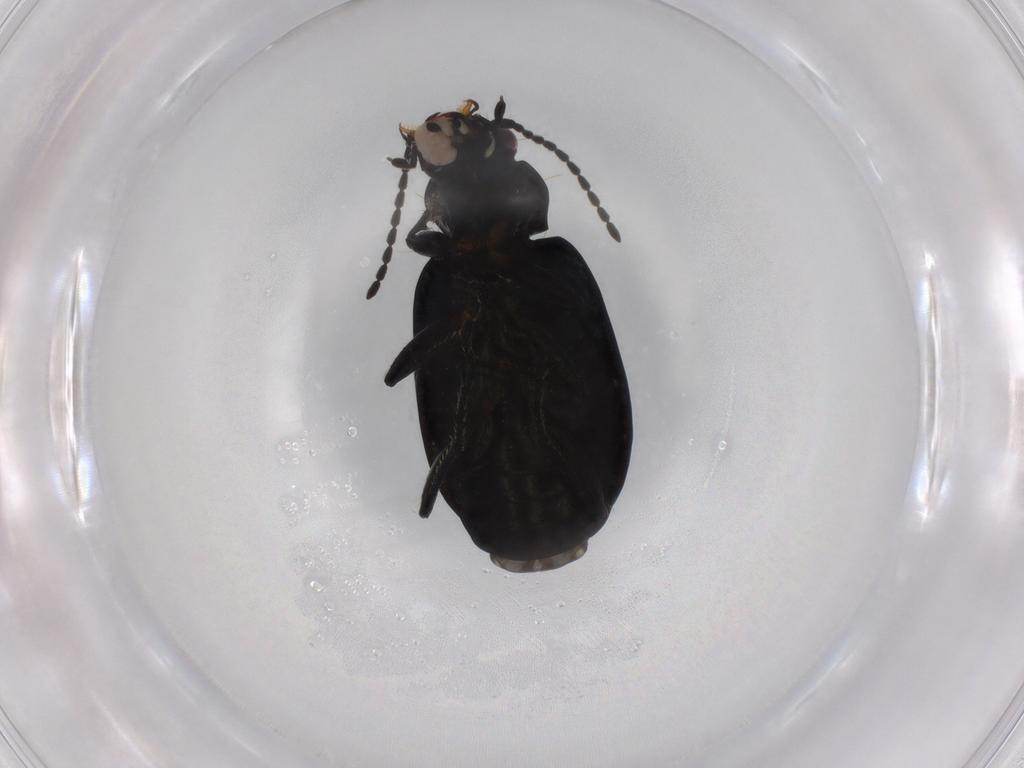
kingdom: Animalia
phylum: Arthropoda
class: Insecta
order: Coleoptera
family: Carabidae
